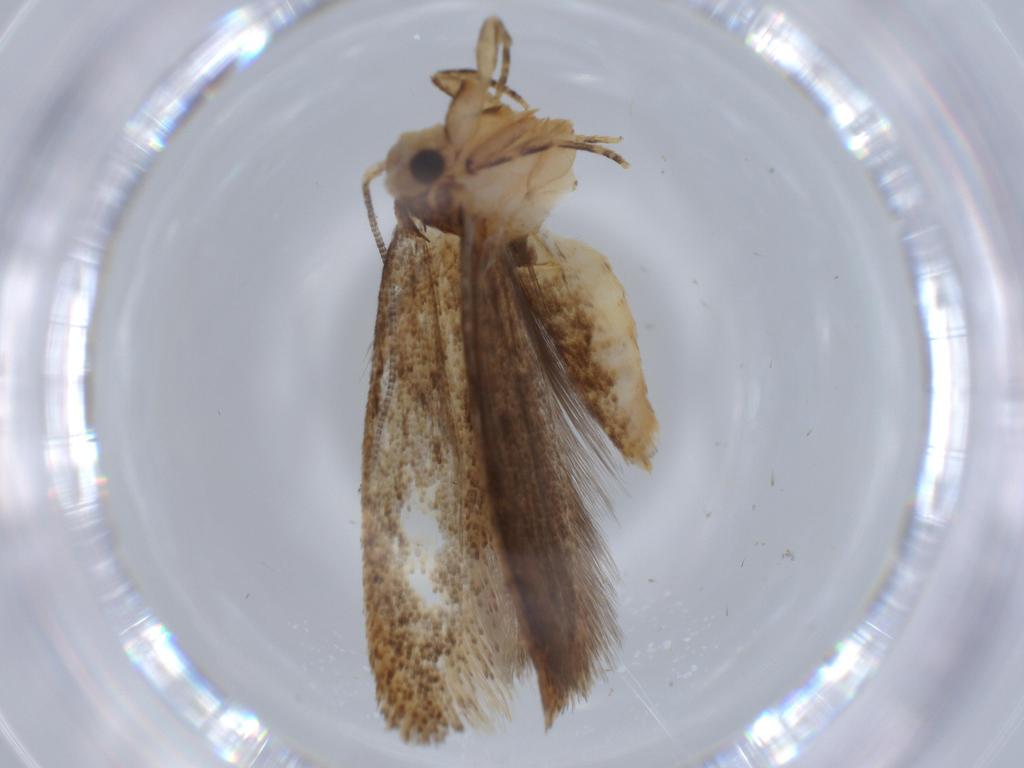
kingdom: Animalia
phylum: Arthropoda
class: Insecta
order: Lepidoptera
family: Tineidae
